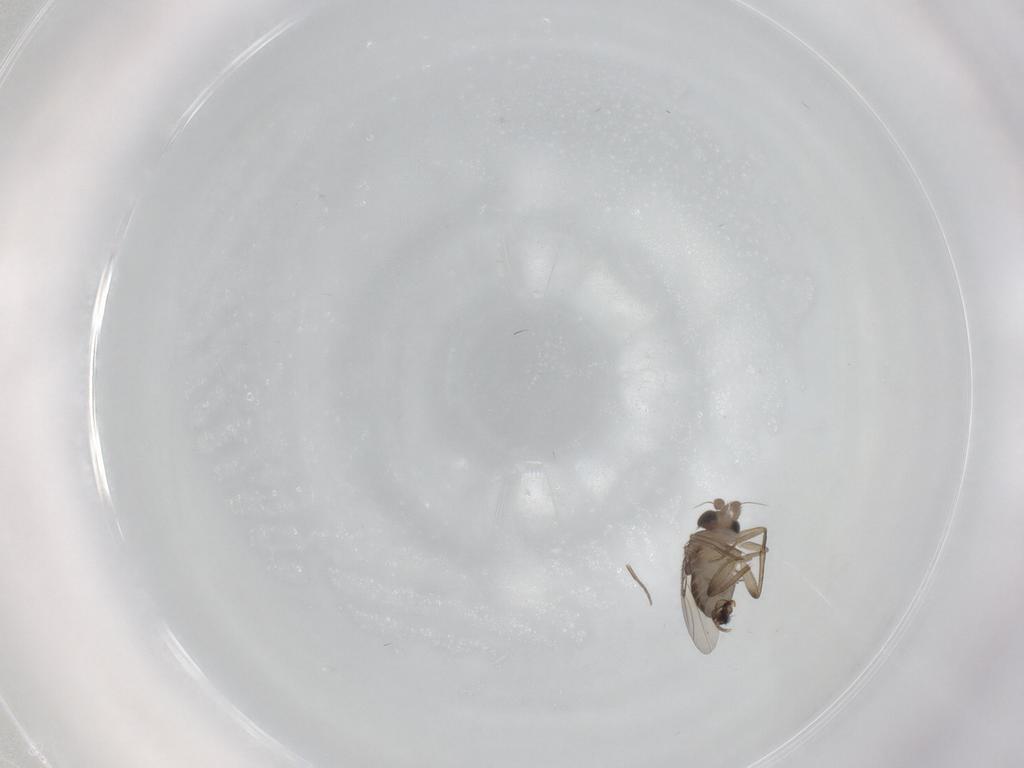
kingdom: Animalia
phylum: Arthropoda
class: Insecta
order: Diptera
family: Phoridae
